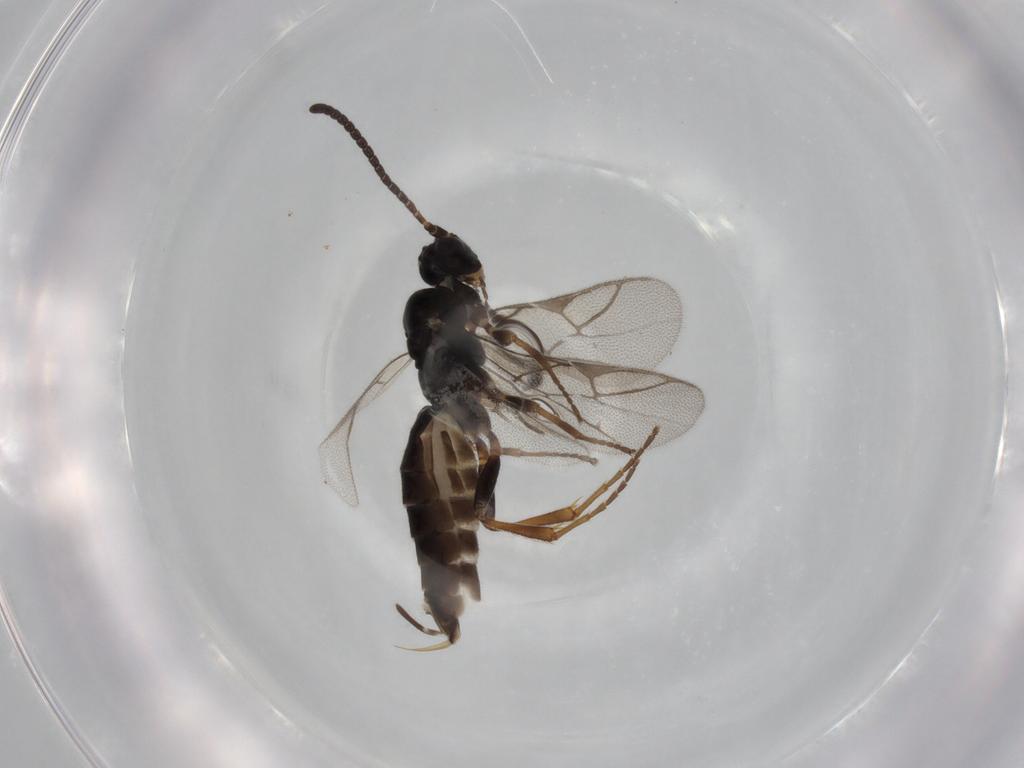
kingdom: Animalia
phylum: Arthropoda
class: Insecta
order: Hymenoptera
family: Ichneumonidae
